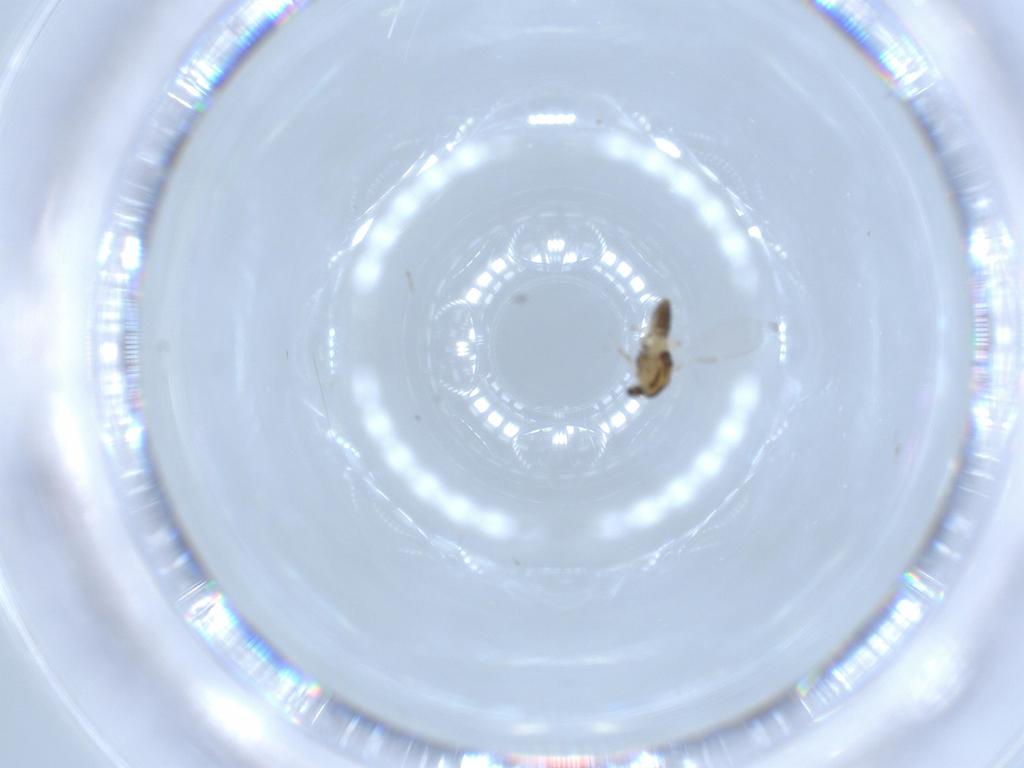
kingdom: Animalia
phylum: Arthropoda
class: Insecta
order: Diptera
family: Chironomidae
